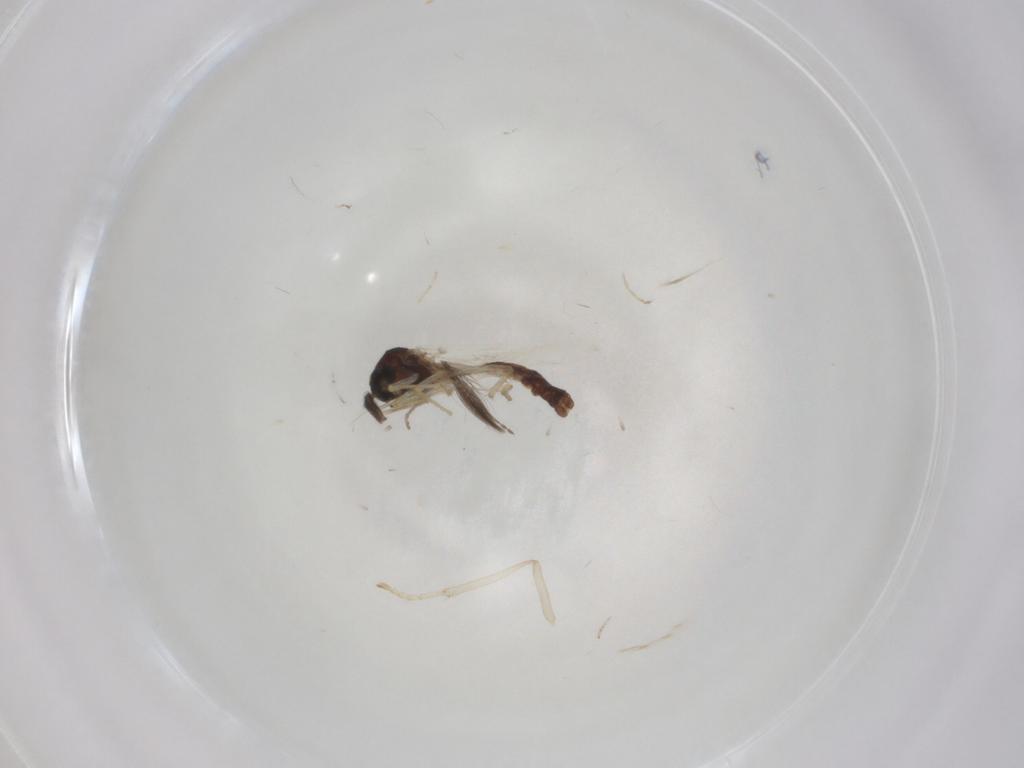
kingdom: Animalia
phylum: Arthropoda
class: Insecta
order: Diptera
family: Ceratopogonidae
